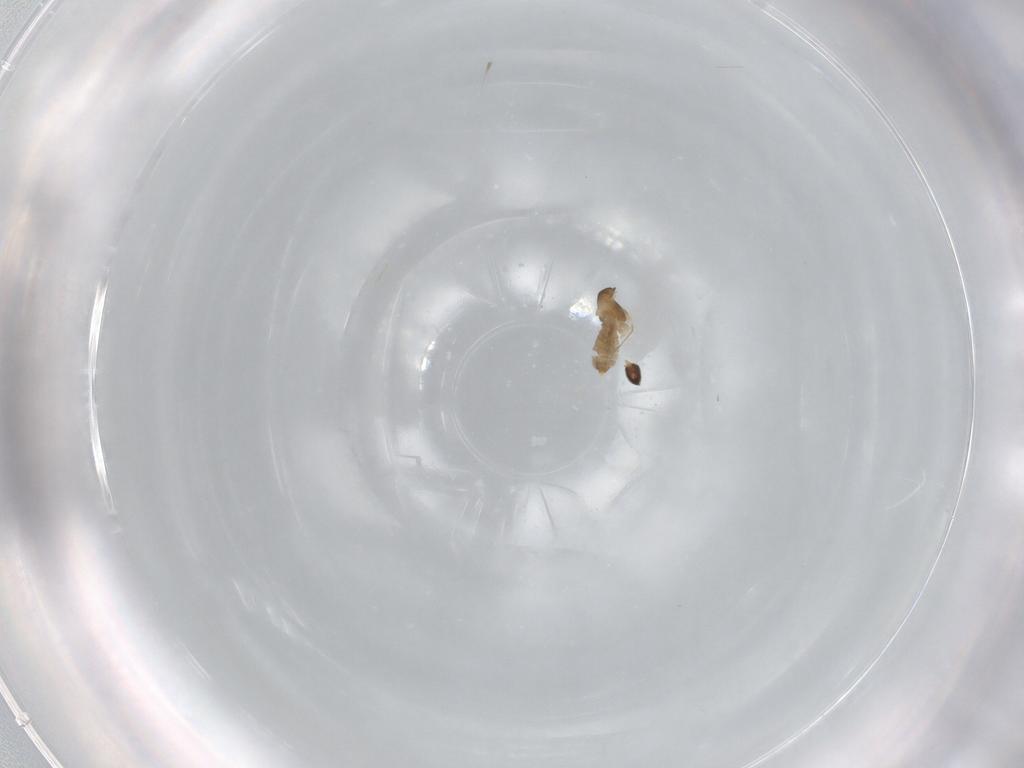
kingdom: Animalia
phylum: Arthropoda
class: Insecta
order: Diptera
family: Cecidomyiidae
